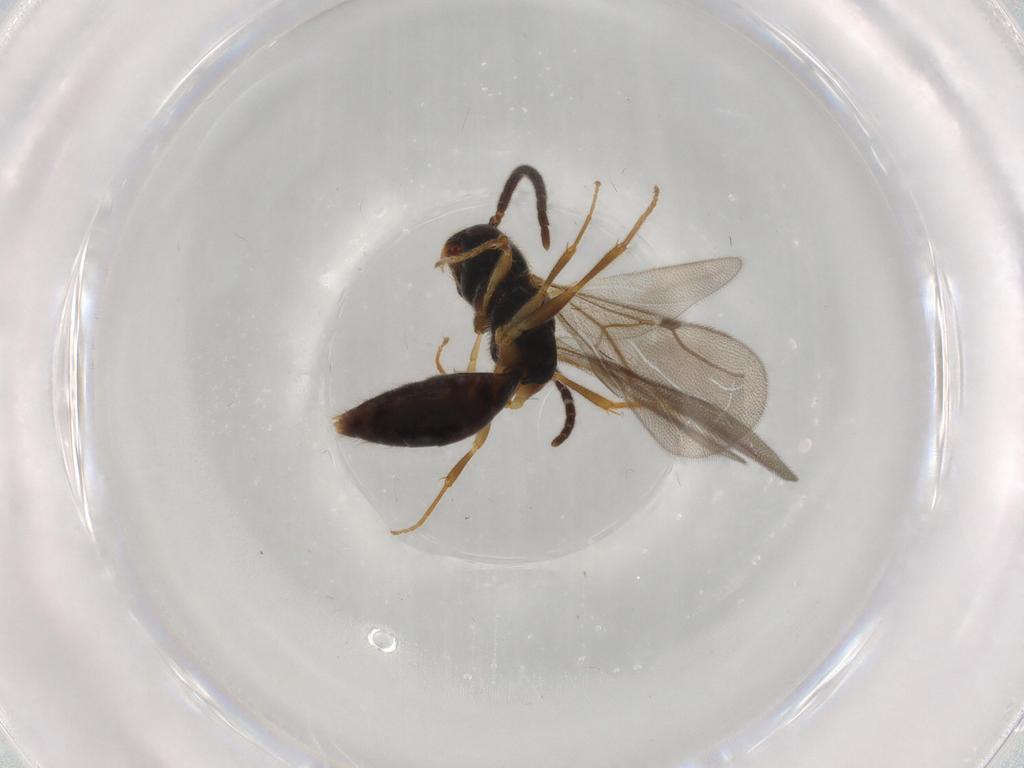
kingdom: Animalia
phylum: Arthropoda
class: Insecta
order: Hymenoptera
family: Bethylidae
